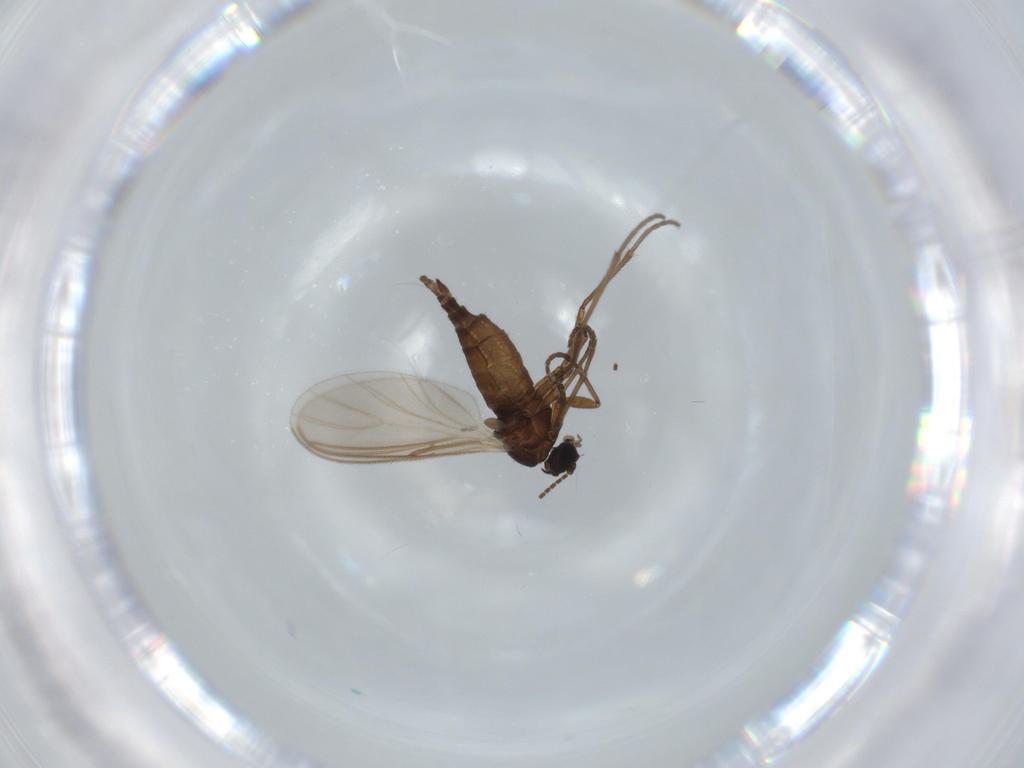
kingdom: Animalia
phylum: Arthropoda
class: Insecta
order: Diptera
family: Sciaridae
